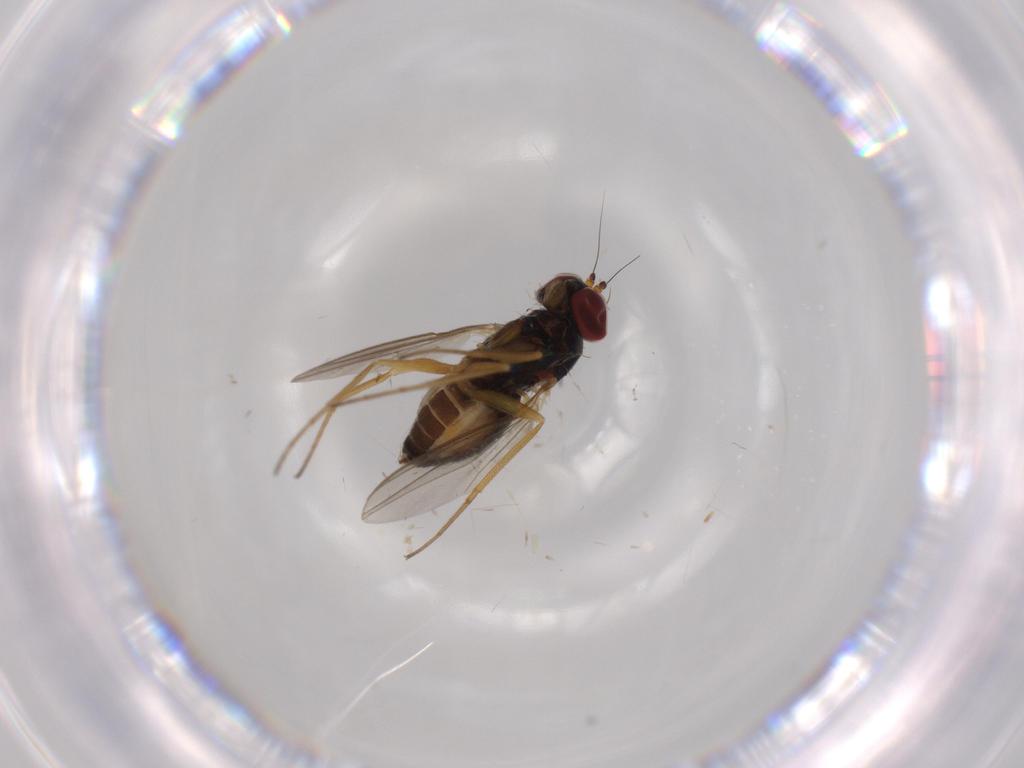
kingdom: Animalia
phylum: Arthropoda
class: Insecta
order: Diptera
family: Dolichopodidae
